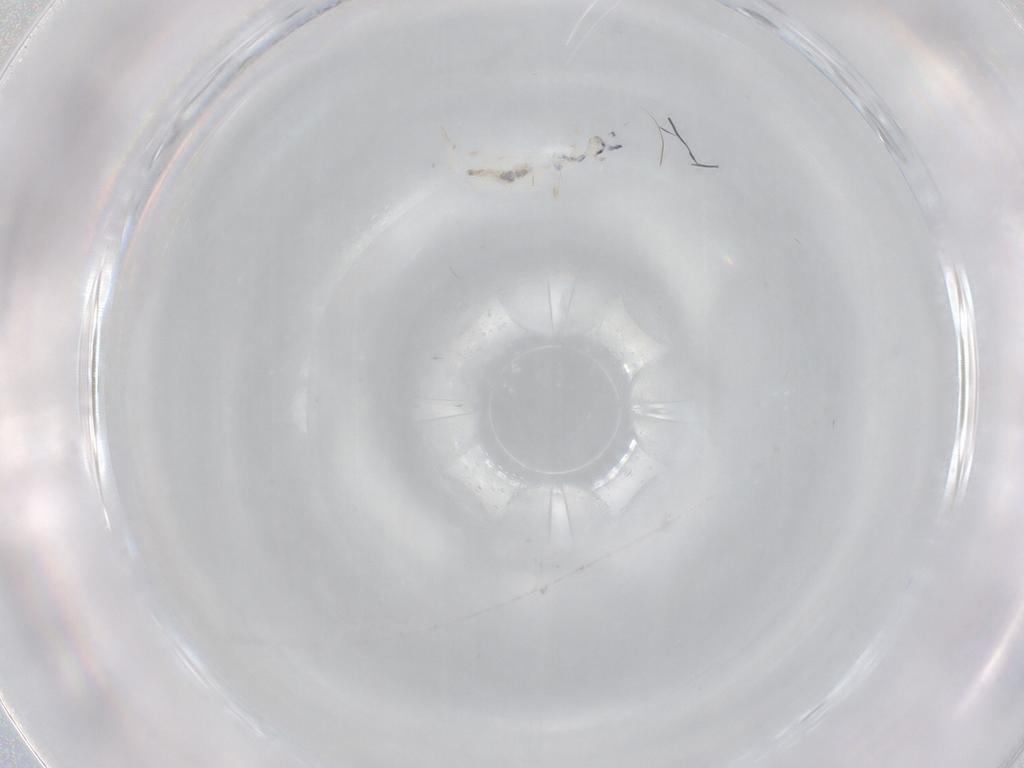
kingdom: Animalia
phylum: Arthropoda
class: Collembola
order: Entomobryomorpha
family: Entomobryidae
